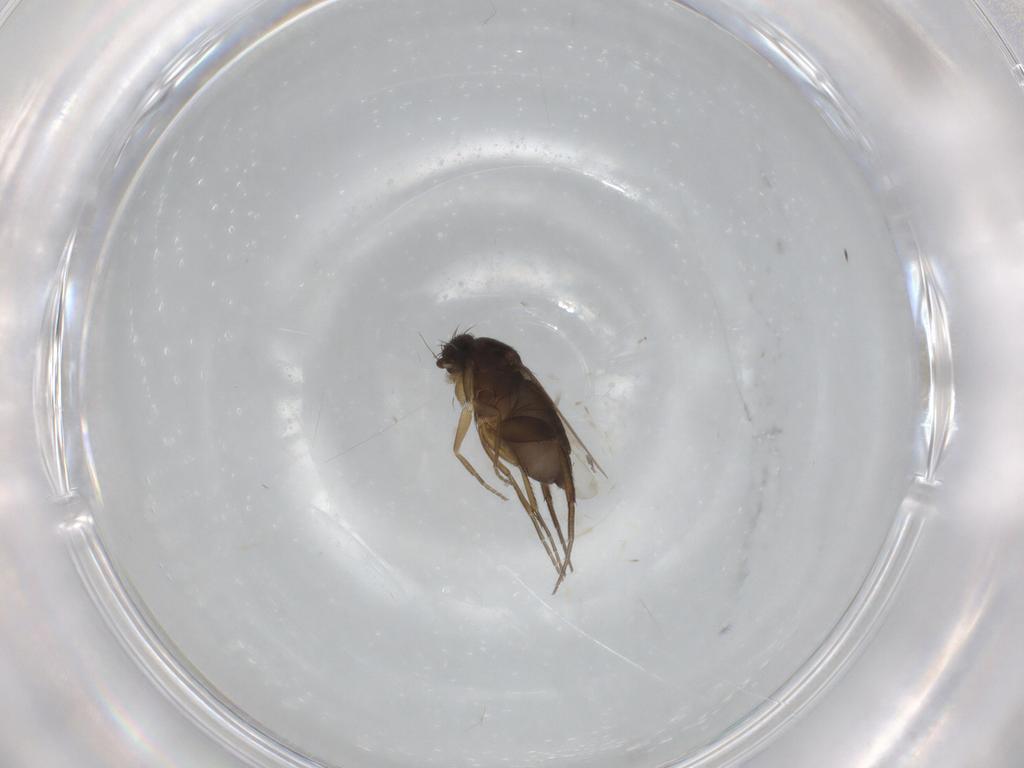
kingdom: Animalia
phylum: Arthropoda
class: Insecta
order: Diptera
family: Phoridae
